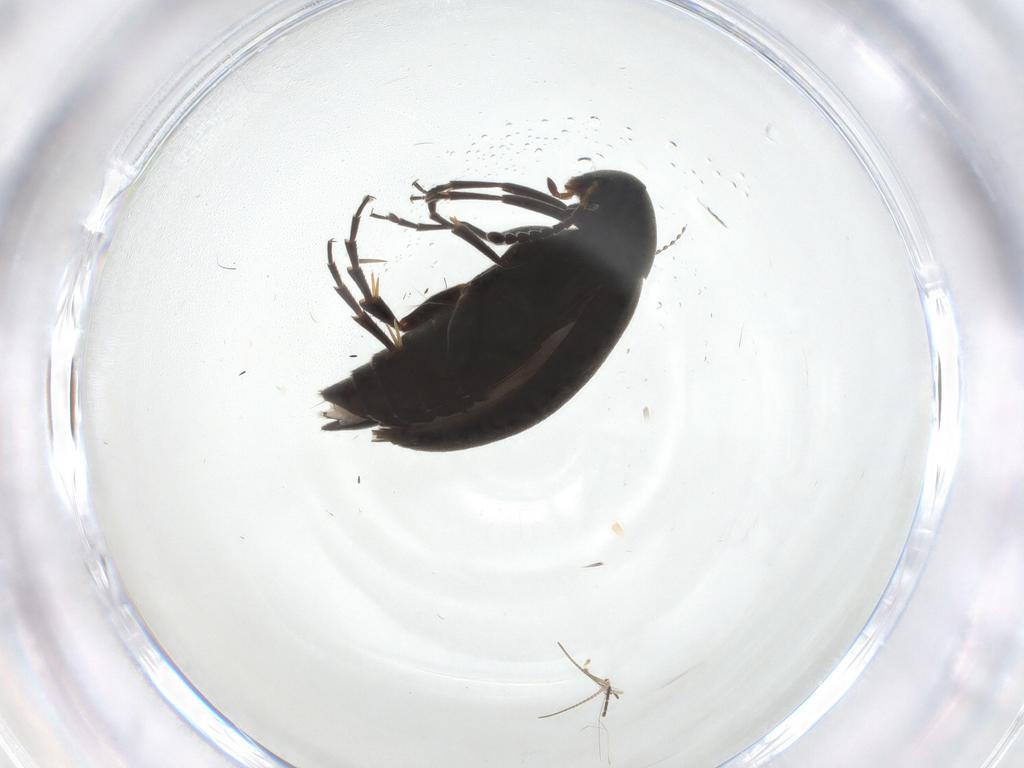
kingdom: Animalia
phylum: Arthropoda
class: Insecta
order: Coleoptera
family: Scraptiidae
